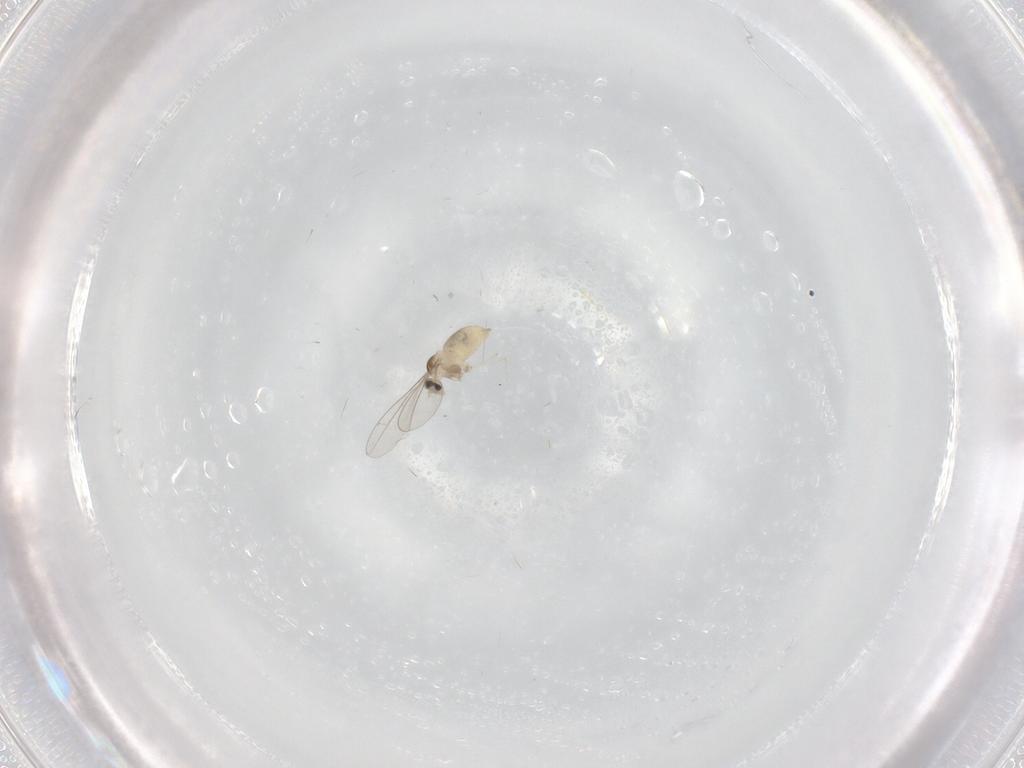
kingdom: Animalia
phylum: Arthropoda
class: Insecta
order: Diptera
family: Cecidomyiidae
